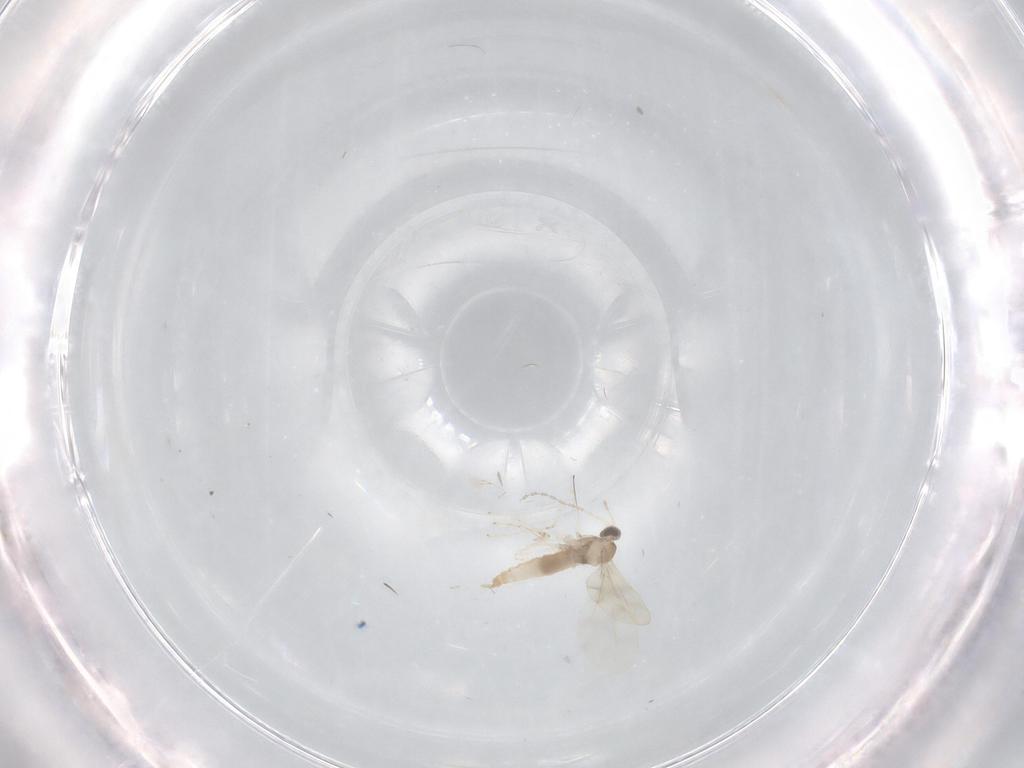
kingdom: Animalia
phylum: Arthropoda
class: Insecta
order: Diptera
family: Cecidomyiidae
